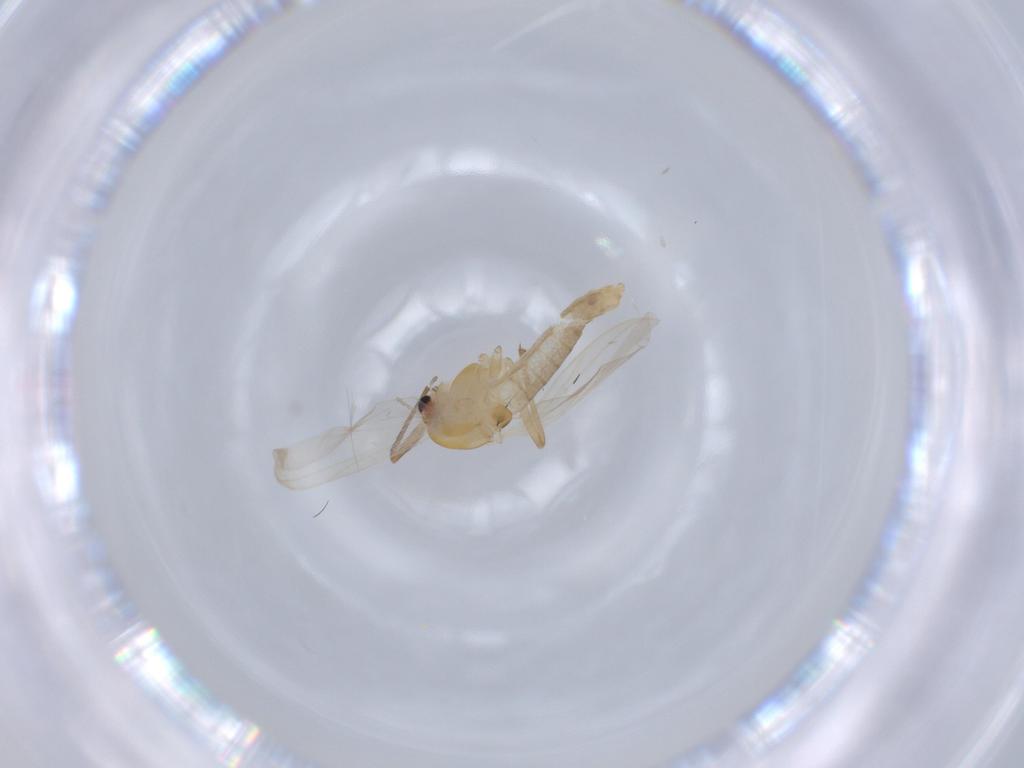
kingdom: Animalia
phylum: Arthropoda
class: Insecta
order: Diptera
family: Chironomidae
